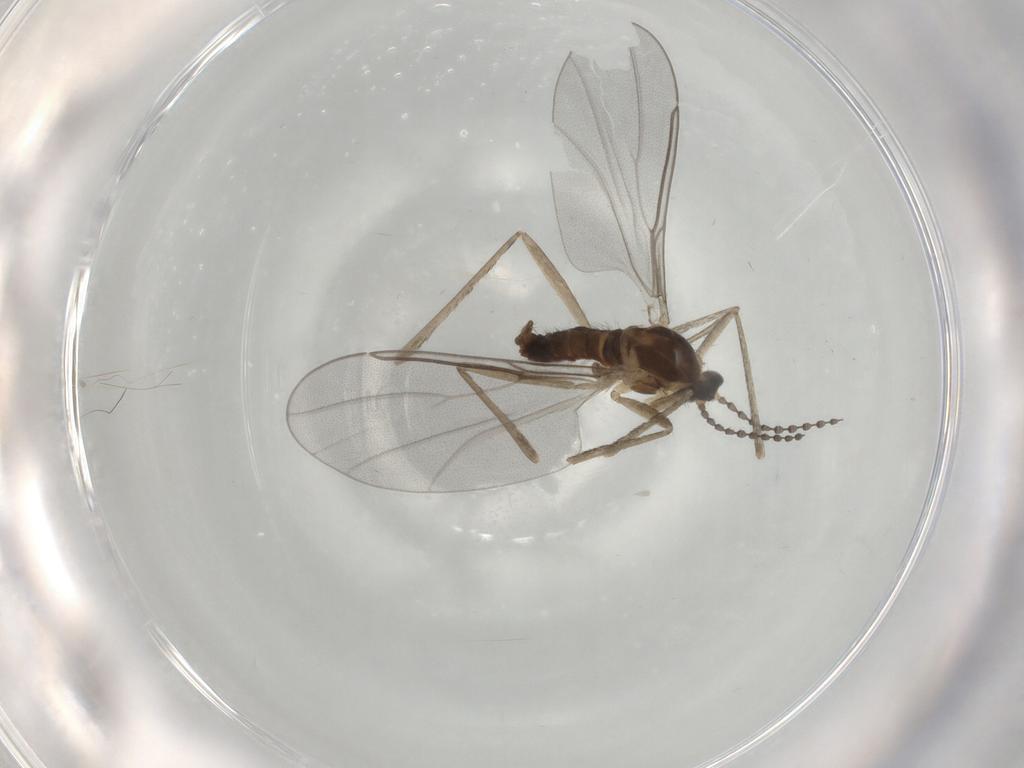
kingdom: Animalia
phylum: Arthropoda
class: Insecta
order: Diptera
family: Cecidomyiidae
